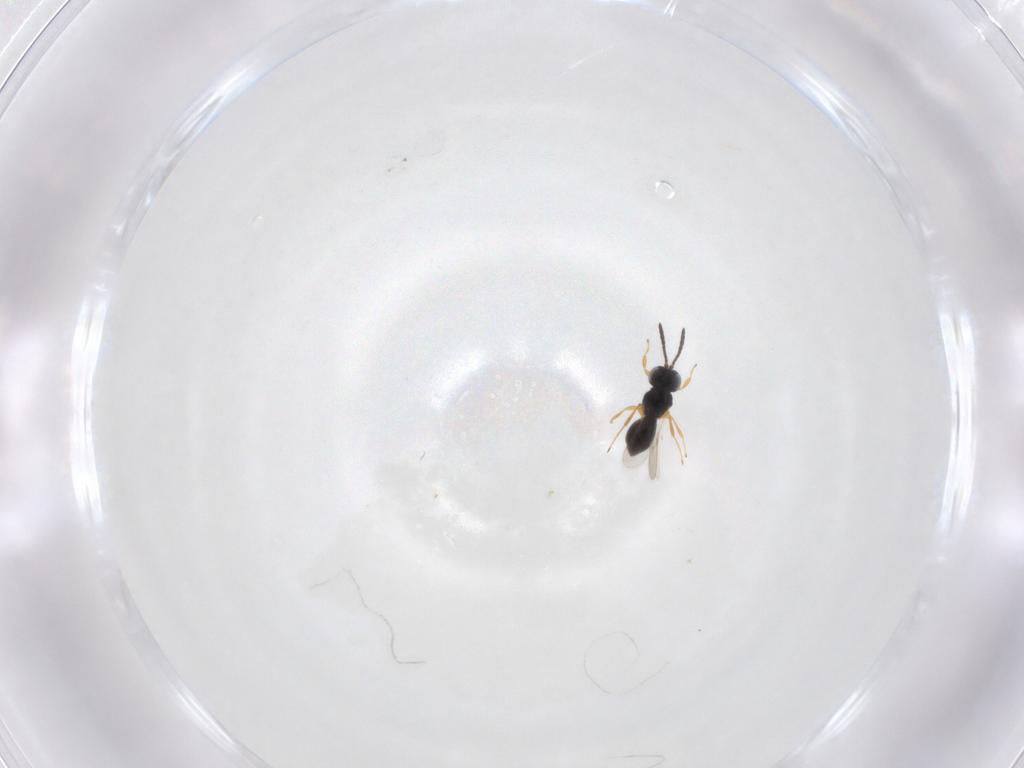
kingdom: Animalia
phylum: Arthropoda
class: Insecta
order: Hymenoptera
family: Scelionidae
